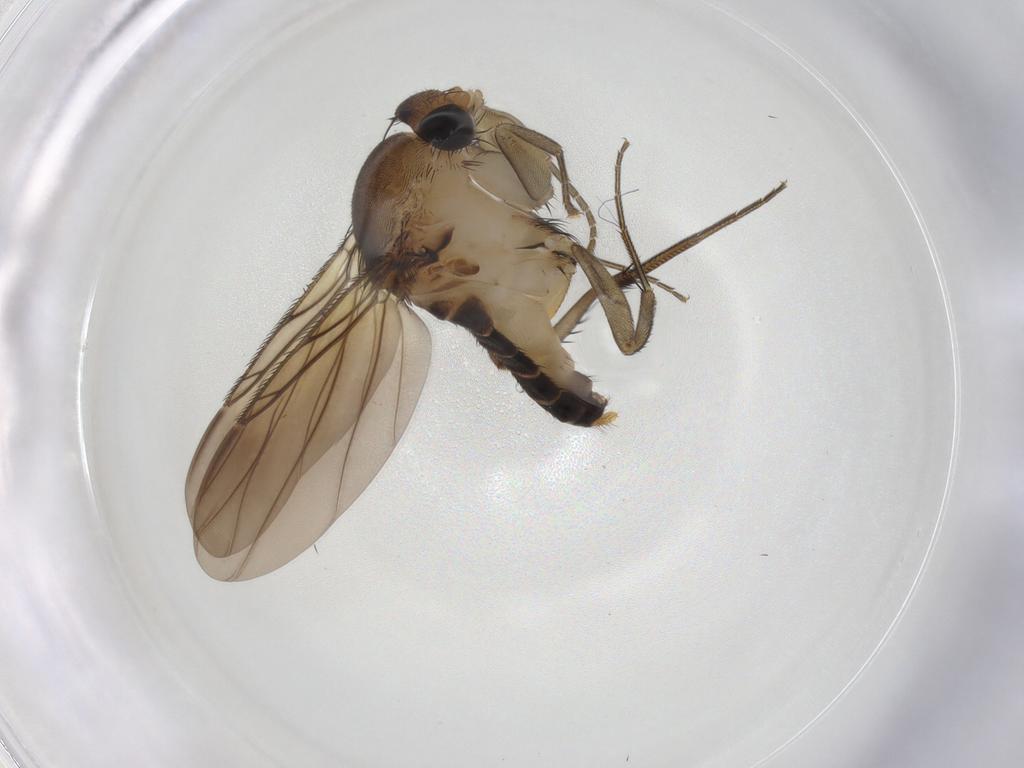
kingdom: Animalia
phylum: Arthropoda
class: Insecta
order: Diptera
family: Phoridae
